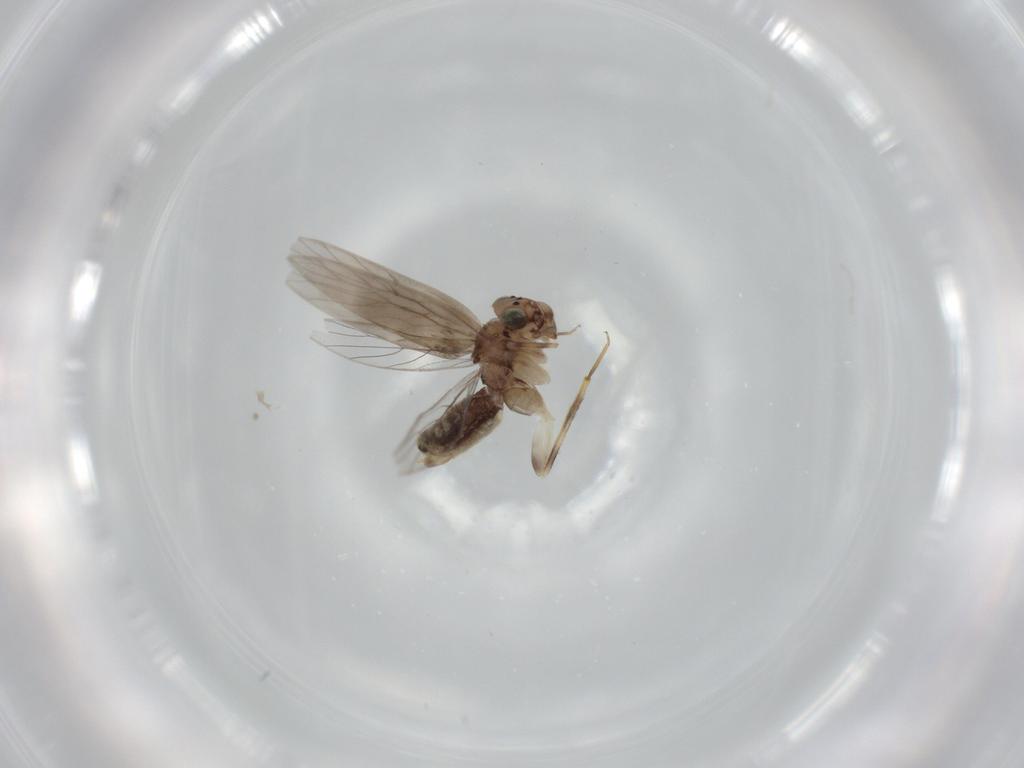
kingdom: Animalia
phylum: Arthropoda
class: Insecta
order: Psocodea
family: Lepidopsocidae
